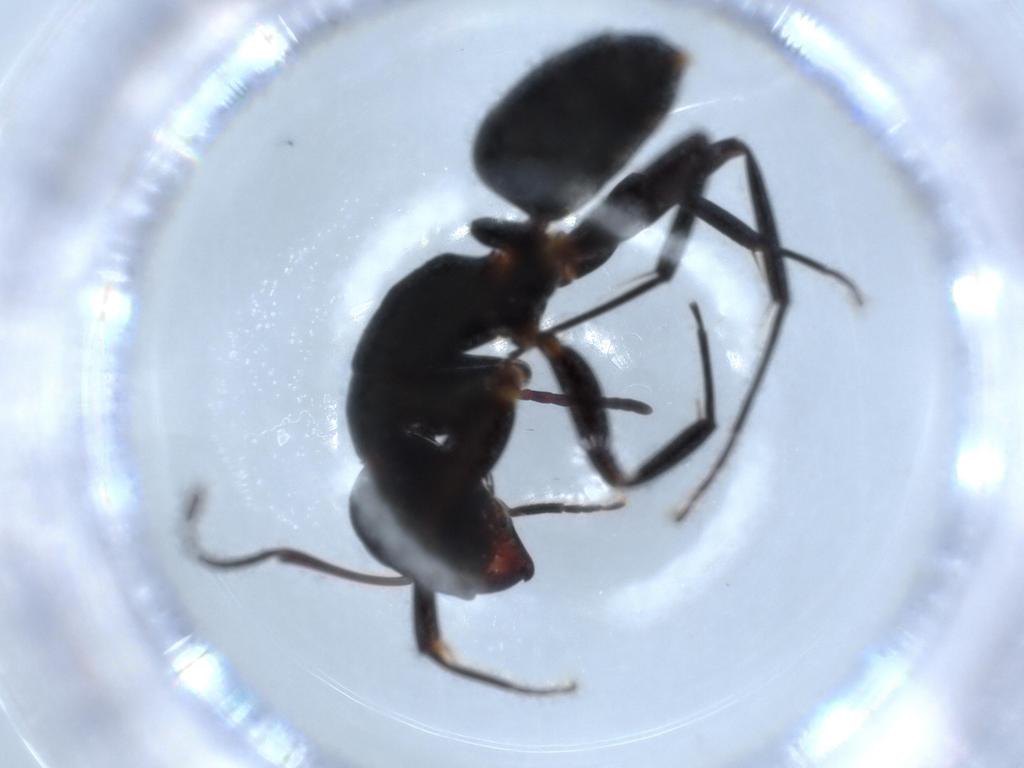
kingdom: Animalia
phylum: Arthropoda
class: Insecta
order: Hymenoptera
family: Formicidae
